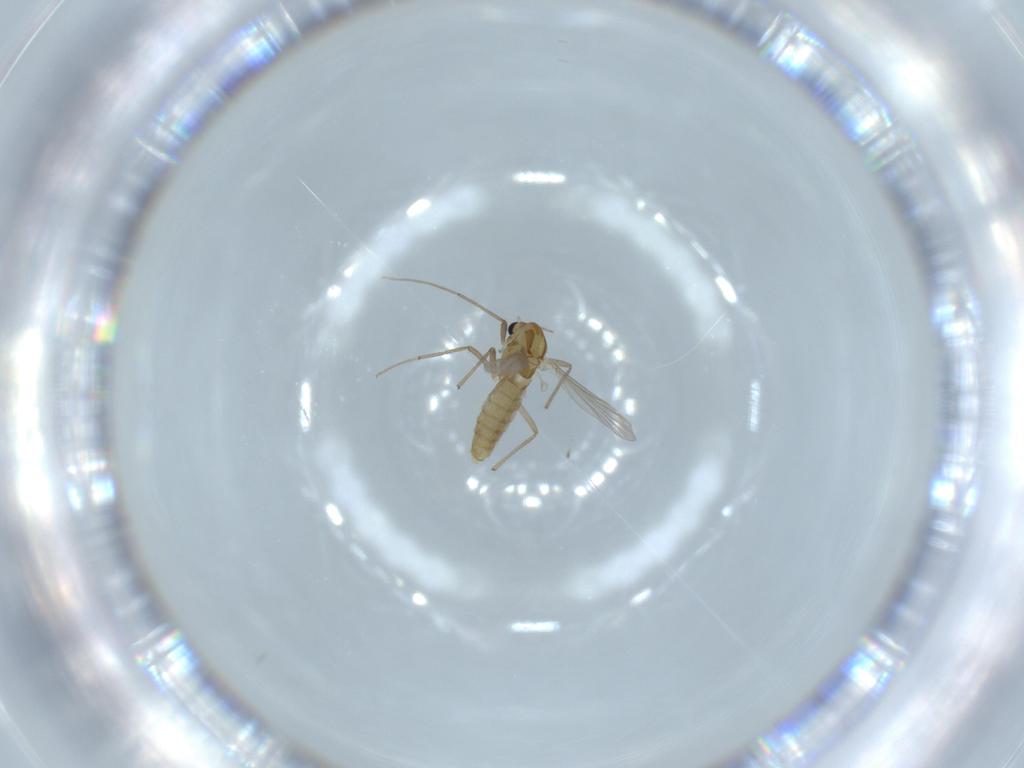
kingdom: Animalia
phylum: Arthropoda
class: Insecta
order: Diptera
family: Chironomidae
